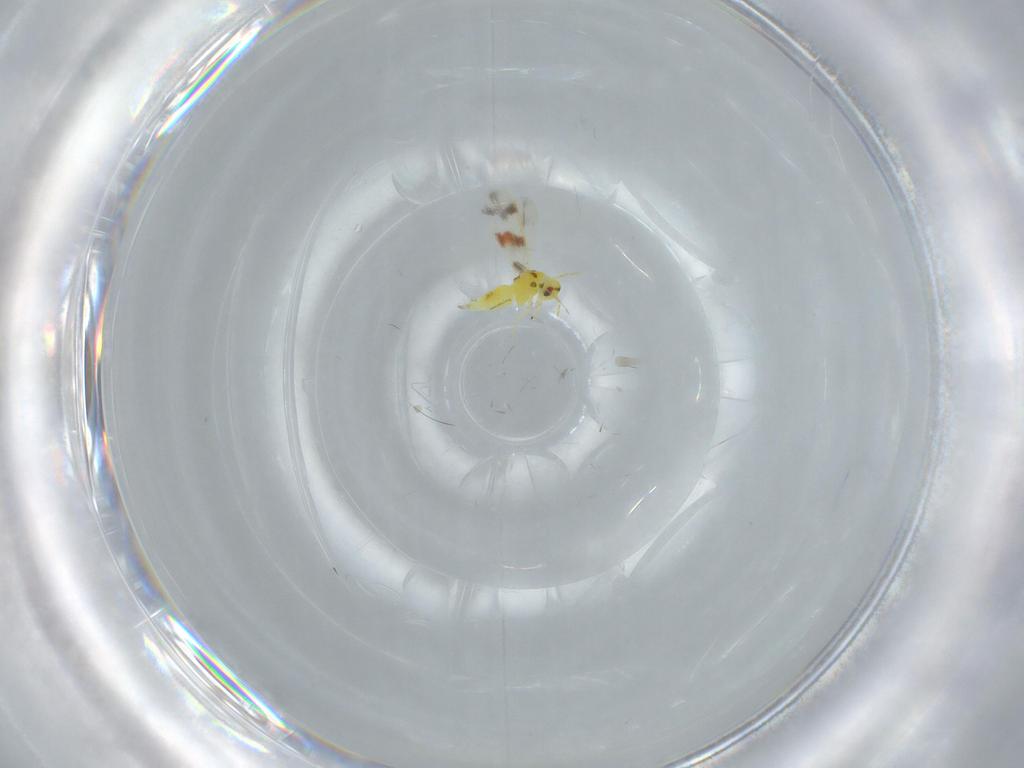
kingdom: Animalia
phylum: Arthropoda
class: Insecta
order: Hemiptera
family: Aleyrodidae
